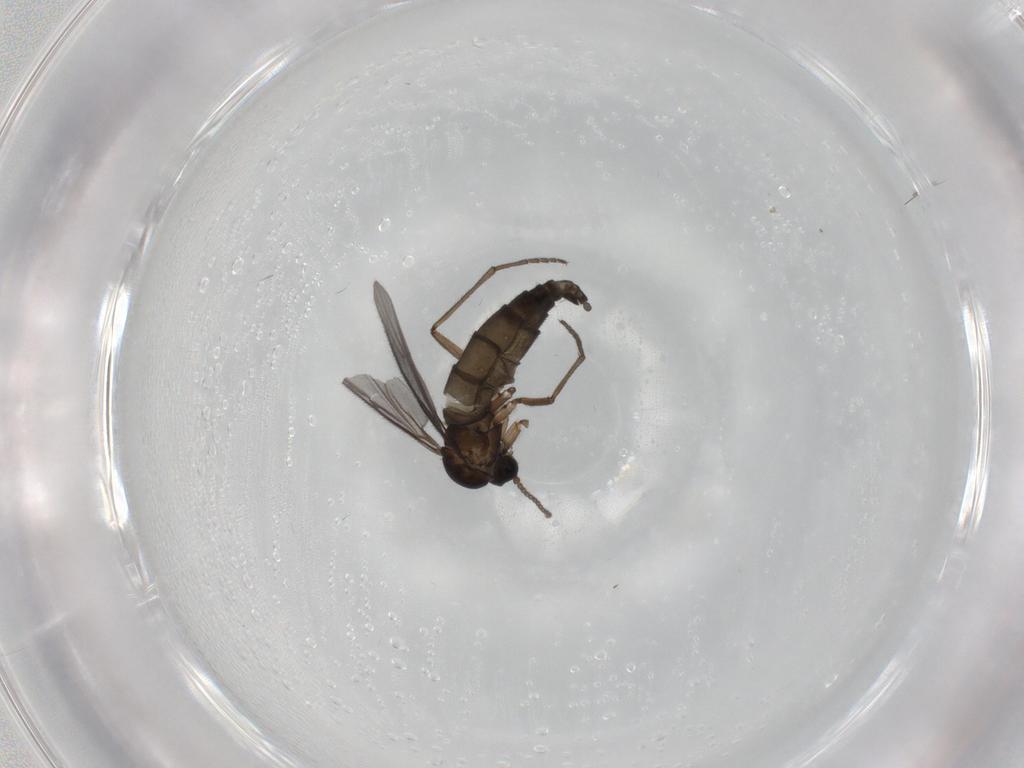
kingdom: Animalia
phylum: Arthropoda
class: Insecta
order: Diptera
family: Sciaridae
